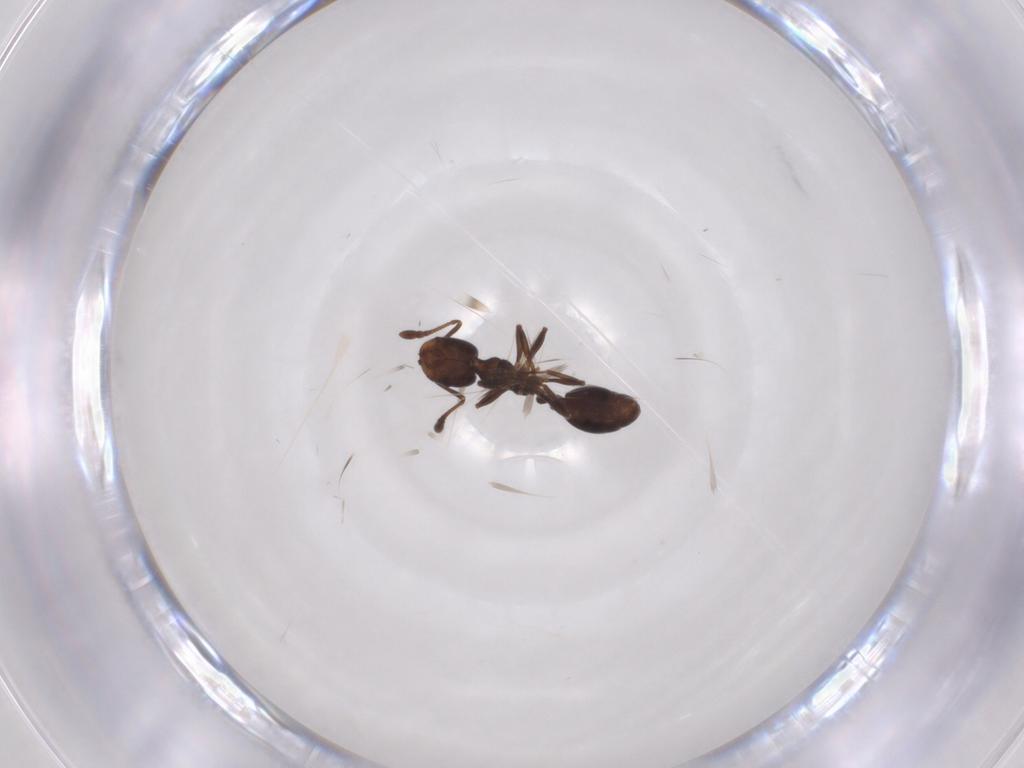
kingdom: Animalia
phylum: Arthropoda
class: Insecta
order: Hymenoptera
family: Formicidae
